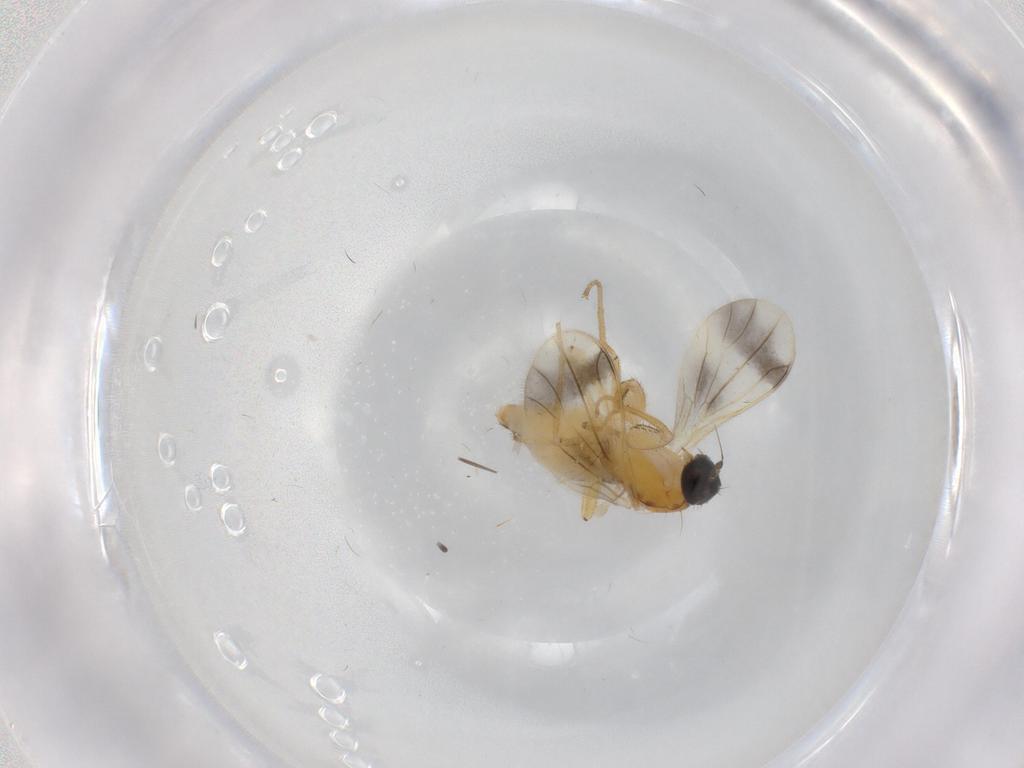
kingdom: Animalia
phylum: Arthropoda
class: Insecta
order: Diptera
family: Empididae
